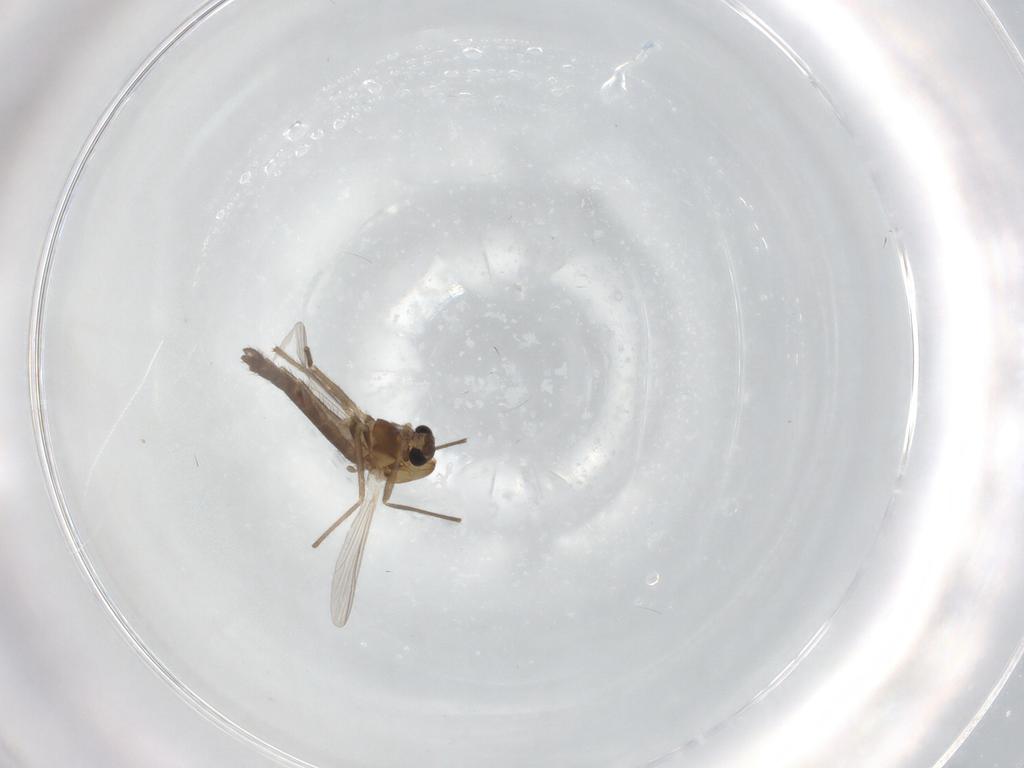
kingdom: Animalia
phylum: Arthropoda
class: Insecta
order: Diptera
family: Chironomidae
